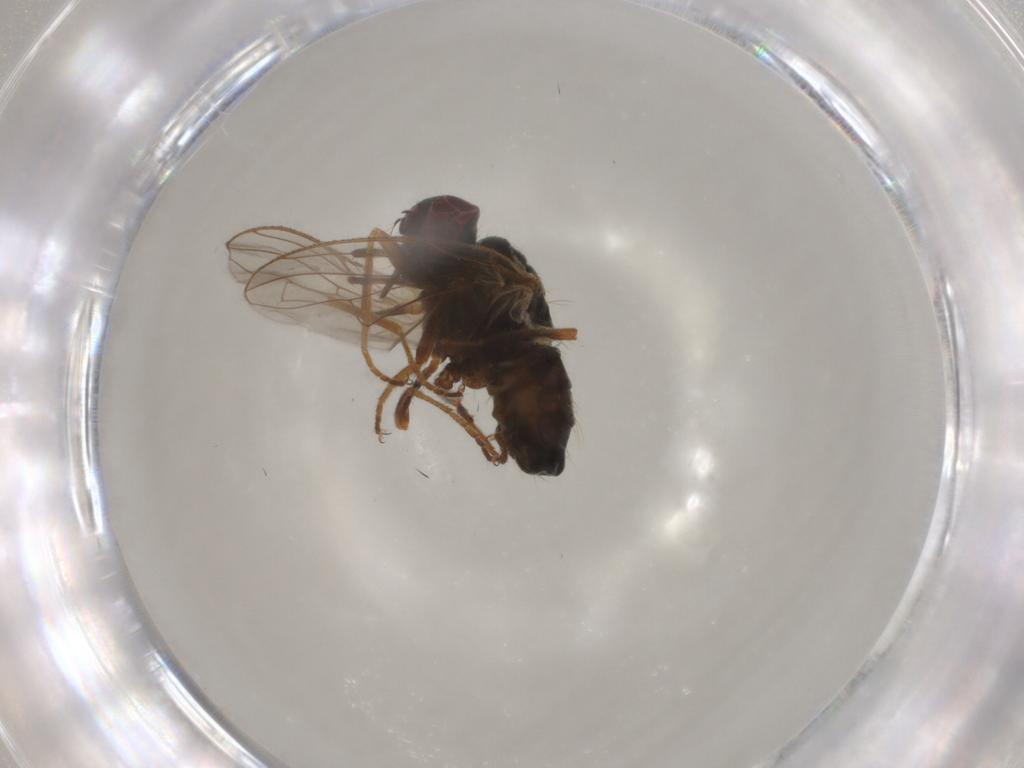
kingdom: Animalia
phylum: Arthropoda
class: Insecta
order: Diptera
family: Muscidae
